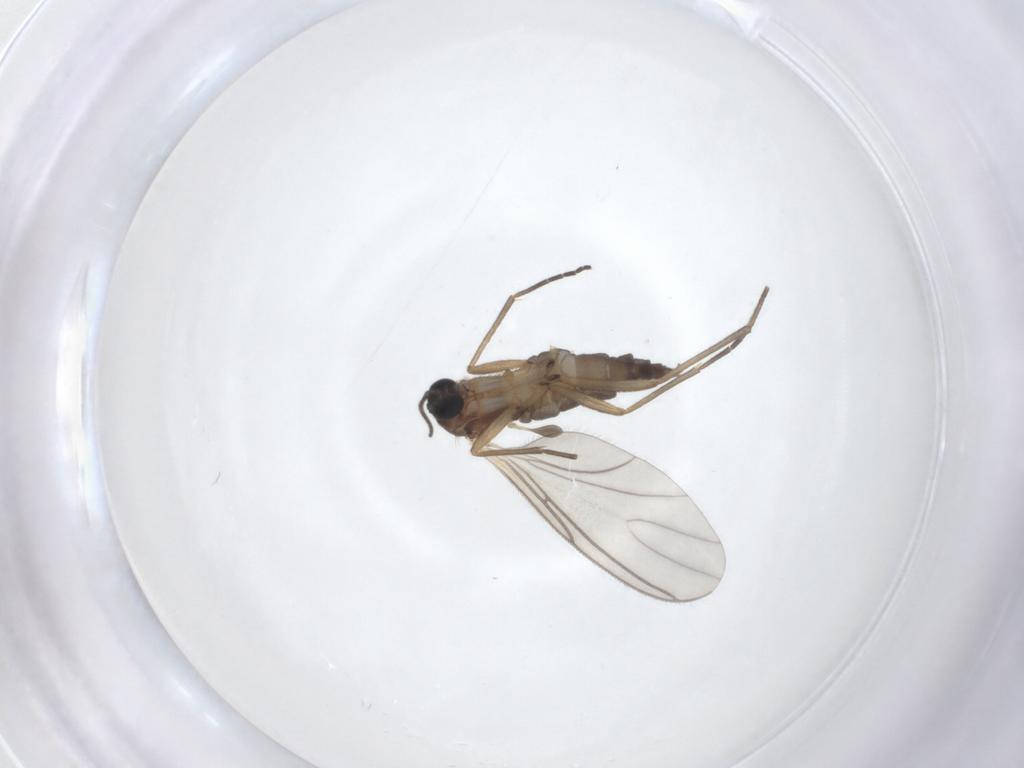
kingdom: Animalia
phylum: Arthropoda
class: Insecta
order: Diptera
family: Sciaridae
